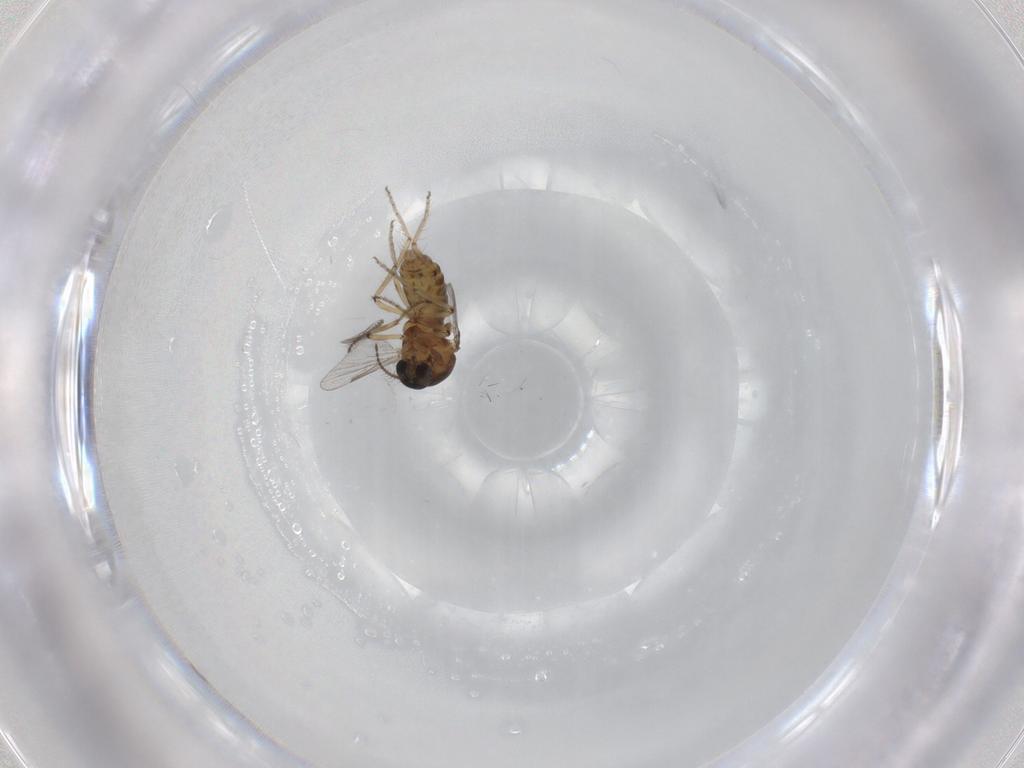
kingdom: Animalia
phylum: Arthropoda
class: Insecta
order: Diptera
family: Ceratopogonidae
